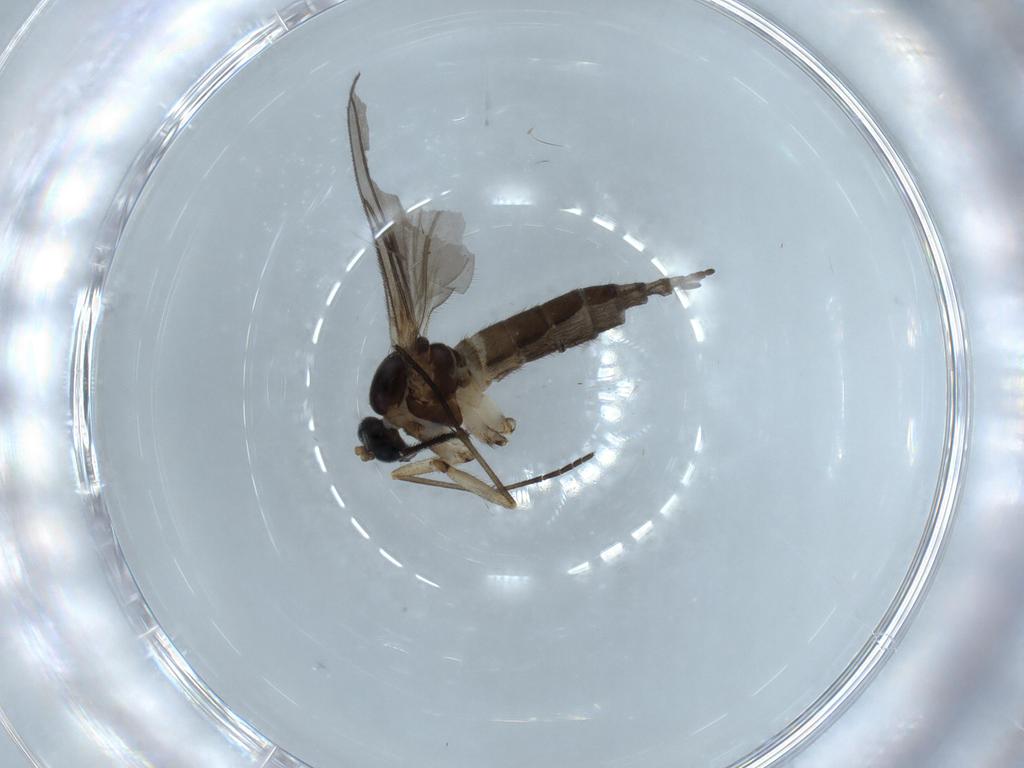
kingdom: Animalia
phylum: Arthropoda
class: Insecta
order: Diptera
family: Sciaridae
